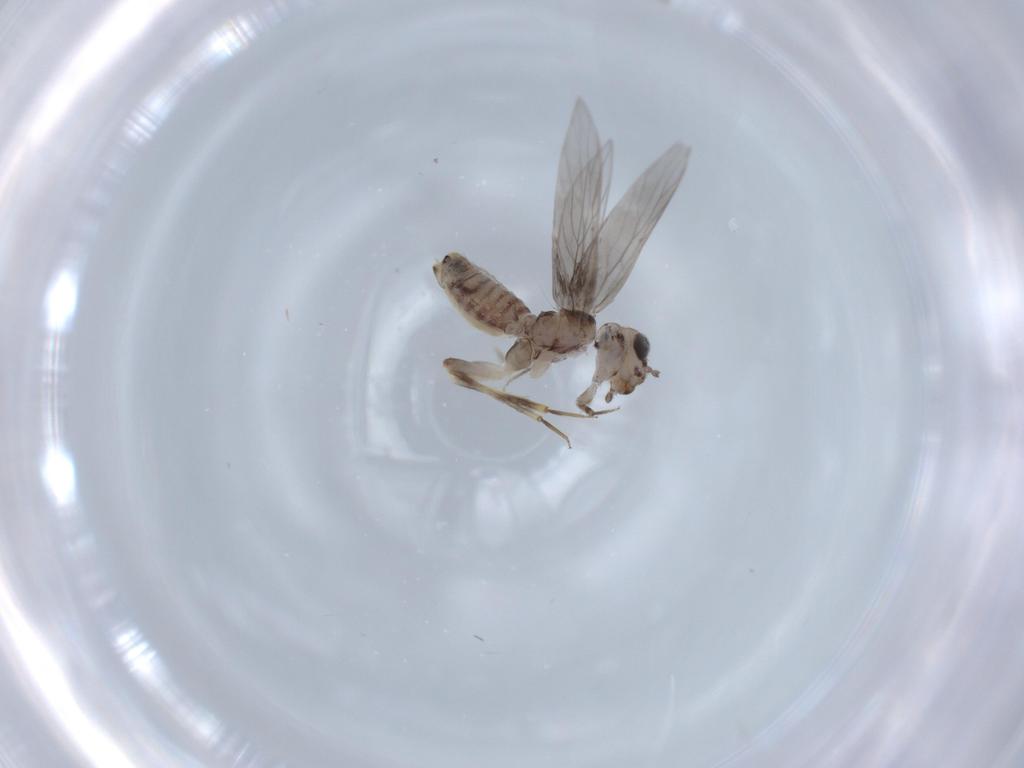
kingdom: Animalia
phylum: Arthropoda
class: Insecta
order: Psocodea
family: Lepidopsocidae
